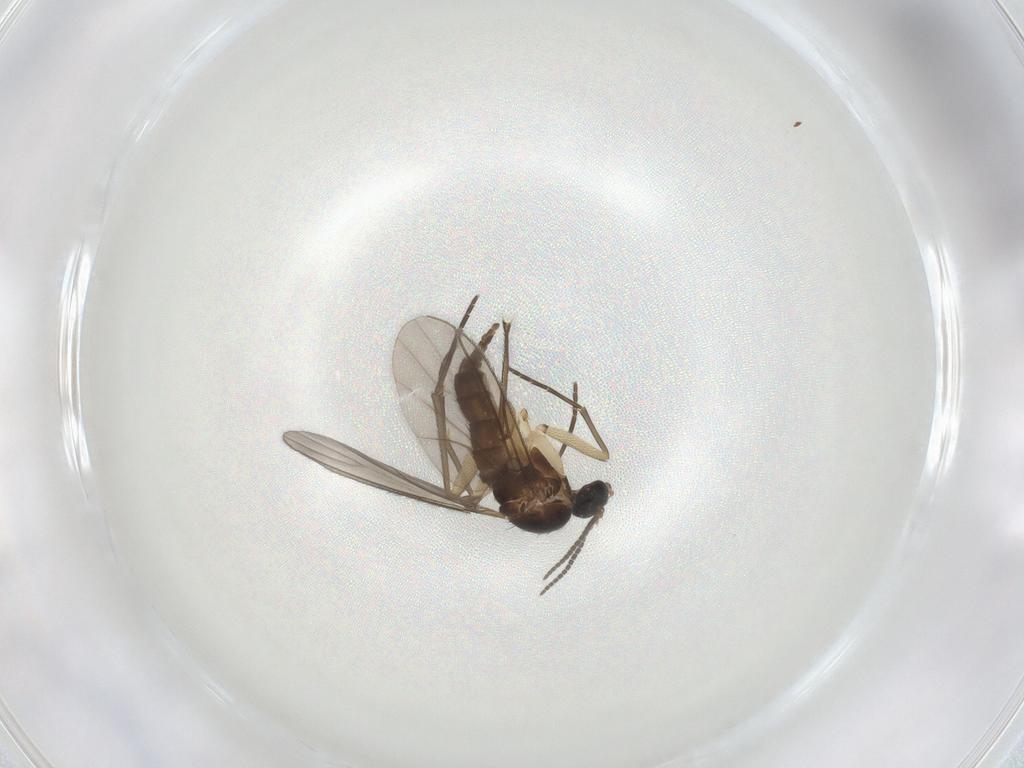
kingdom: Animalia
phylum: Arthropoda
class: Insecta
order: Diptera
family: Sciaridae
